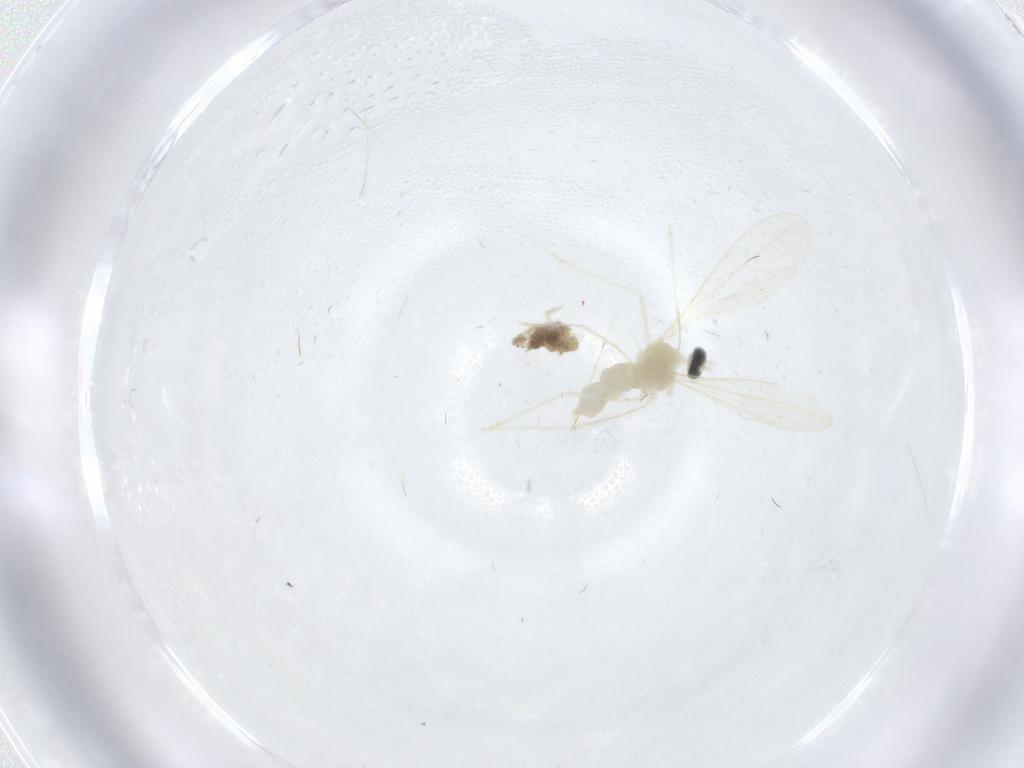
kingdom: Animalia
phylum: Arthropoda
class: Insecta
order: Diptera
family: Cecidomyiidae
